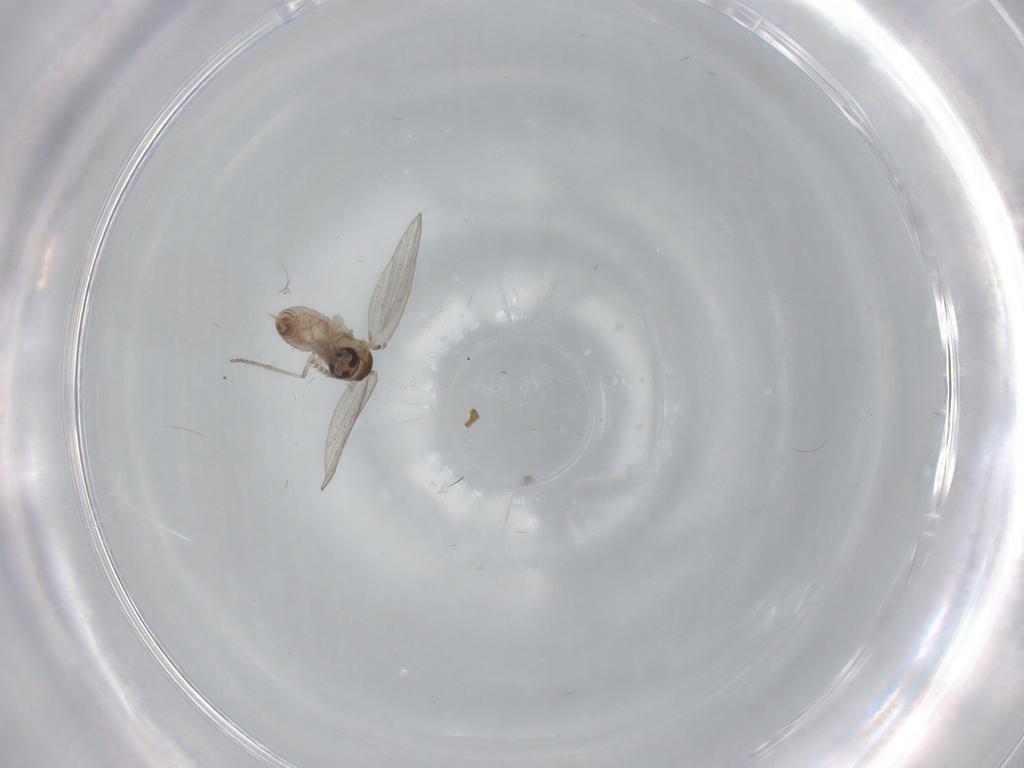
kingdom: Animalia
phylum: Arthropoda
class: Insecta
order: Diptera
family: Psychodidae
